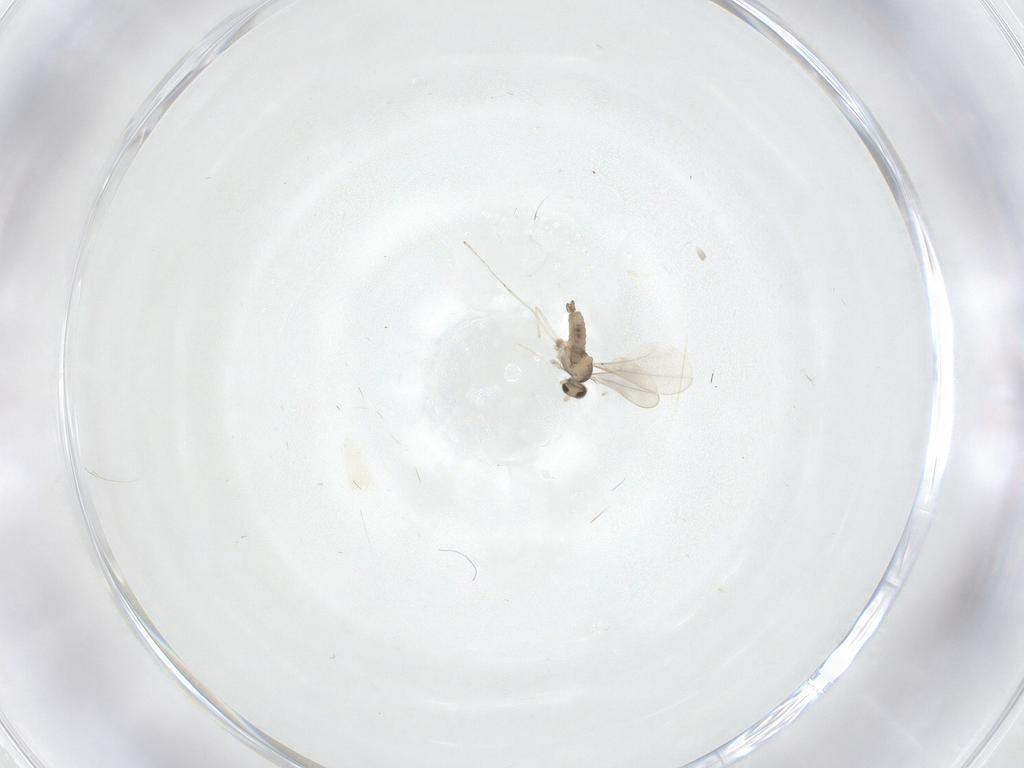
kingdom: Animalia
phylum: Arthropoda
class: Insecta
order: Diptera
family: Cecidomyiidae
